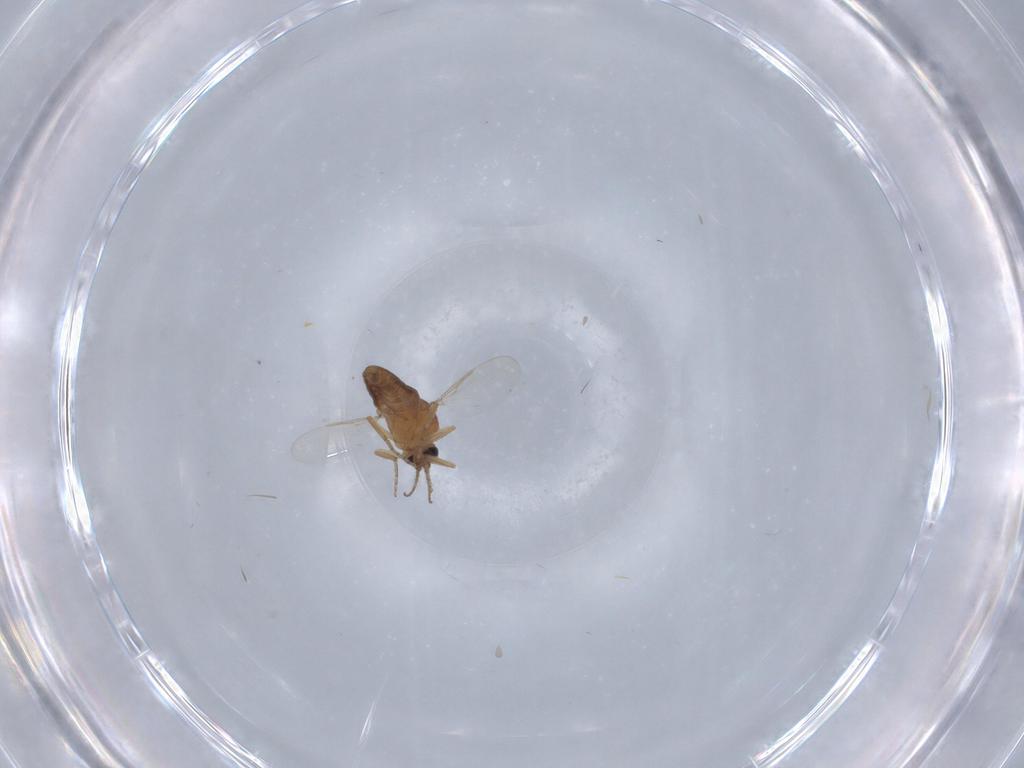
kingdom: Animalia
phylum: Arthropoda
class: Insecta
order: Diptera
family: Ceratopogonidae
